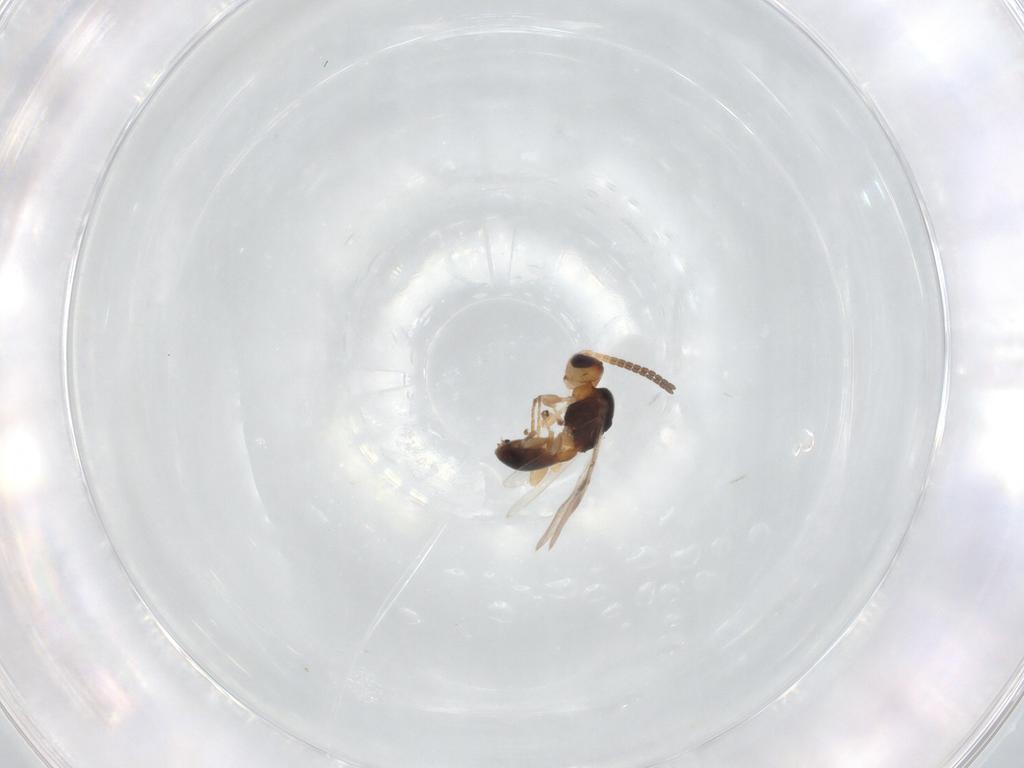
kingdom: Animalia
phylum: Arthropoda
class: Insecta
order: Hymenoptera
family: Braconidae
